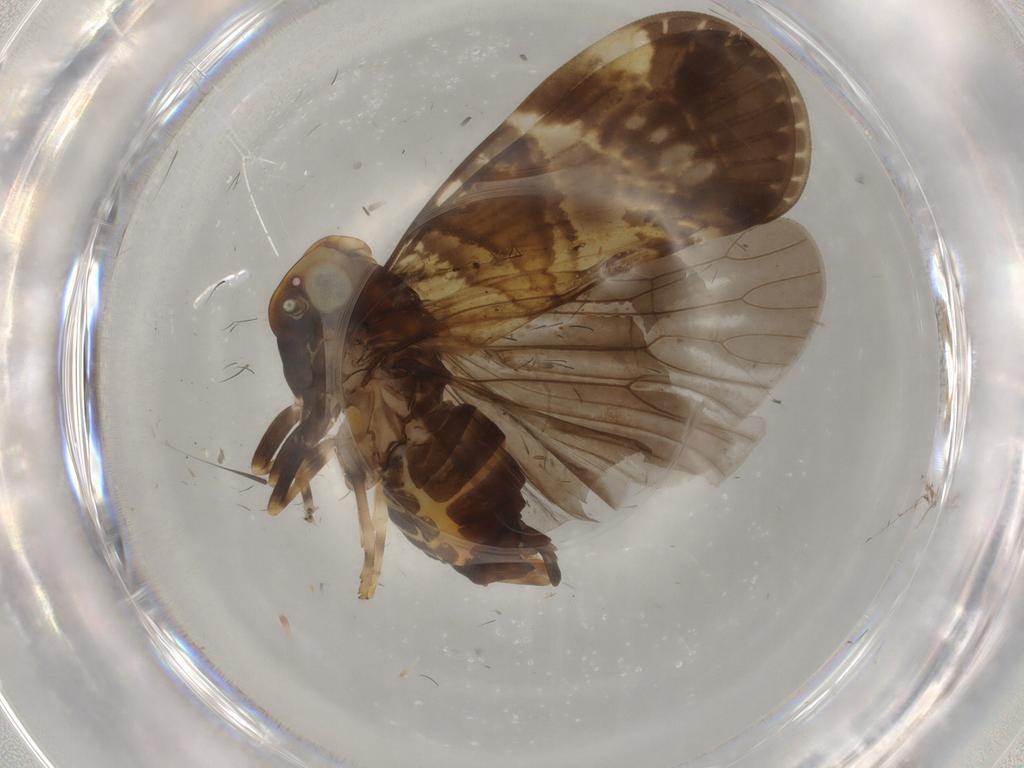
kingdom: Animalia
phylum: Arthropoda
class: Insecta
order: Hemiptera
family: Cixiidae
